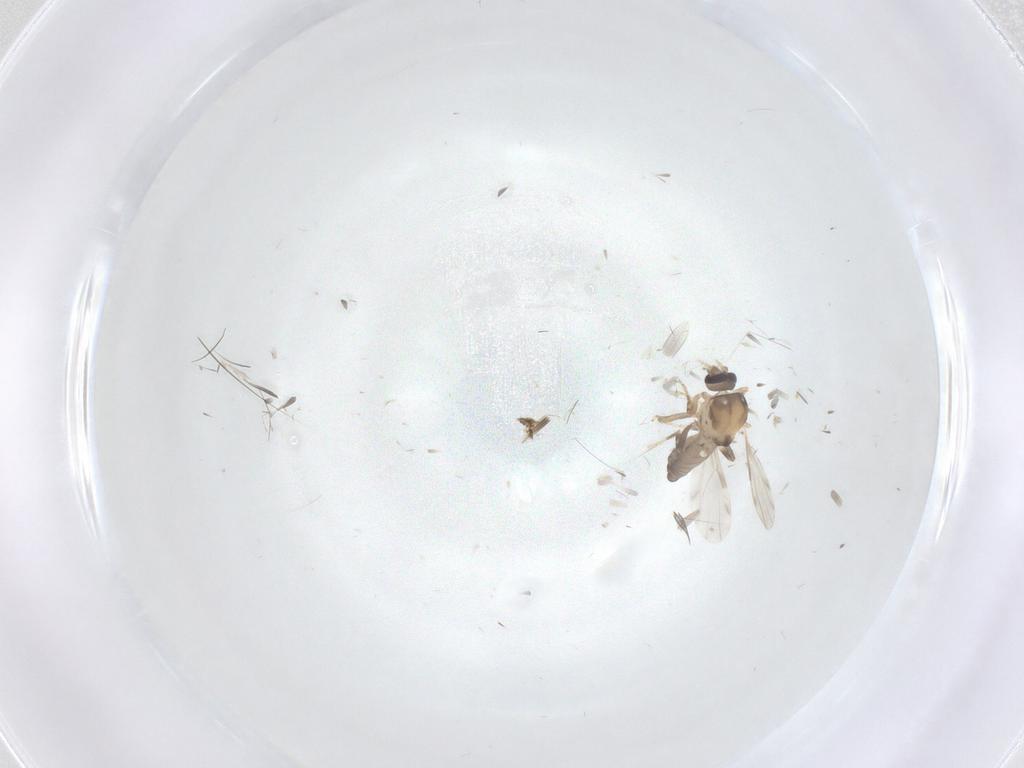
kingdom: Animalia
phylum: Arthropoda
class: Insecta
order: Diptera
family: Ceratopogonidae
